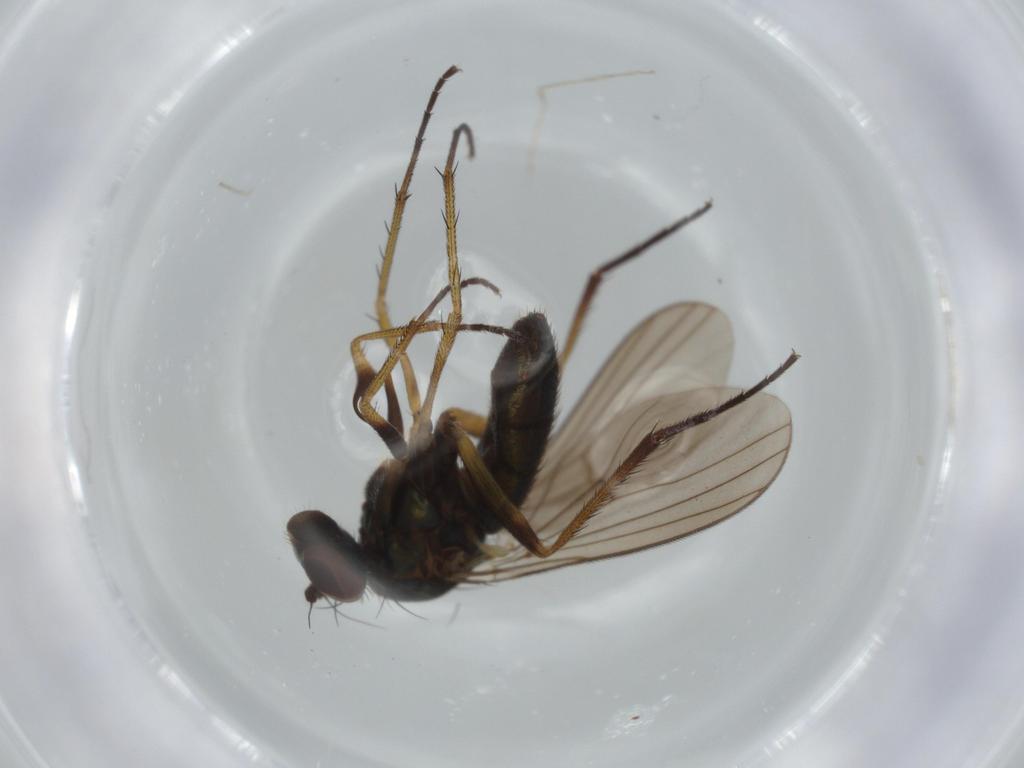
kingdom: Animalia
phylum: Arthropoda
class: Insecta
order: Diptera
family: Dolichopodidae
